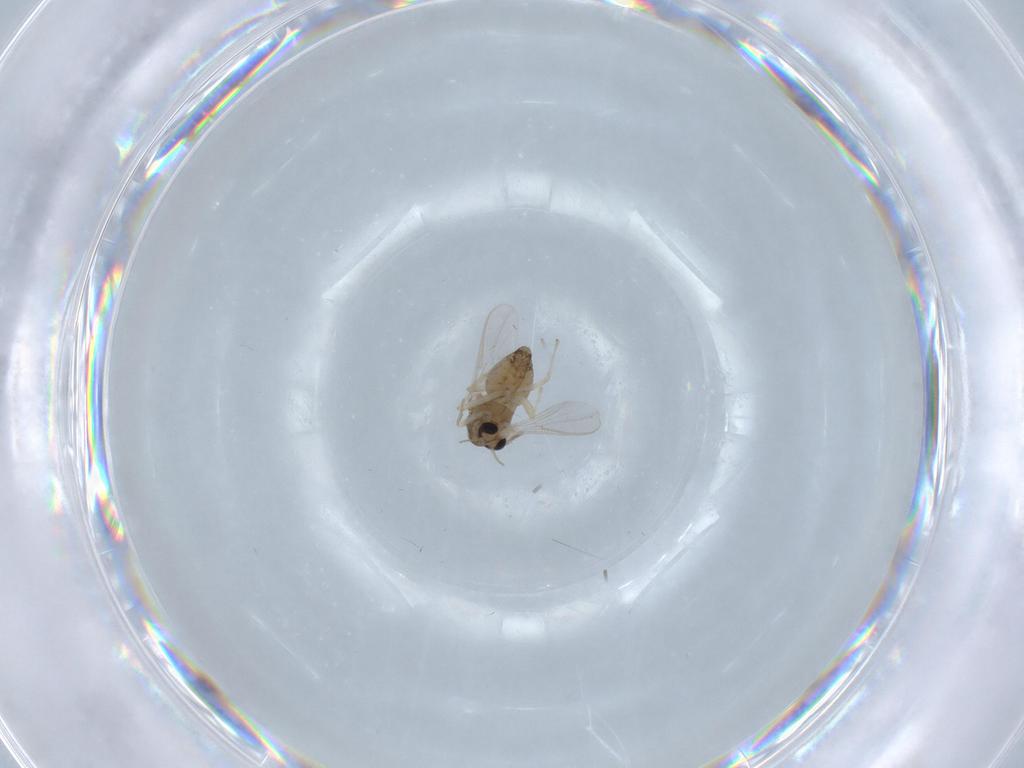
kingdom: Animalia
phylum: Arthropoda
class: Insecta
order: Diptera
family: Chironomidae
